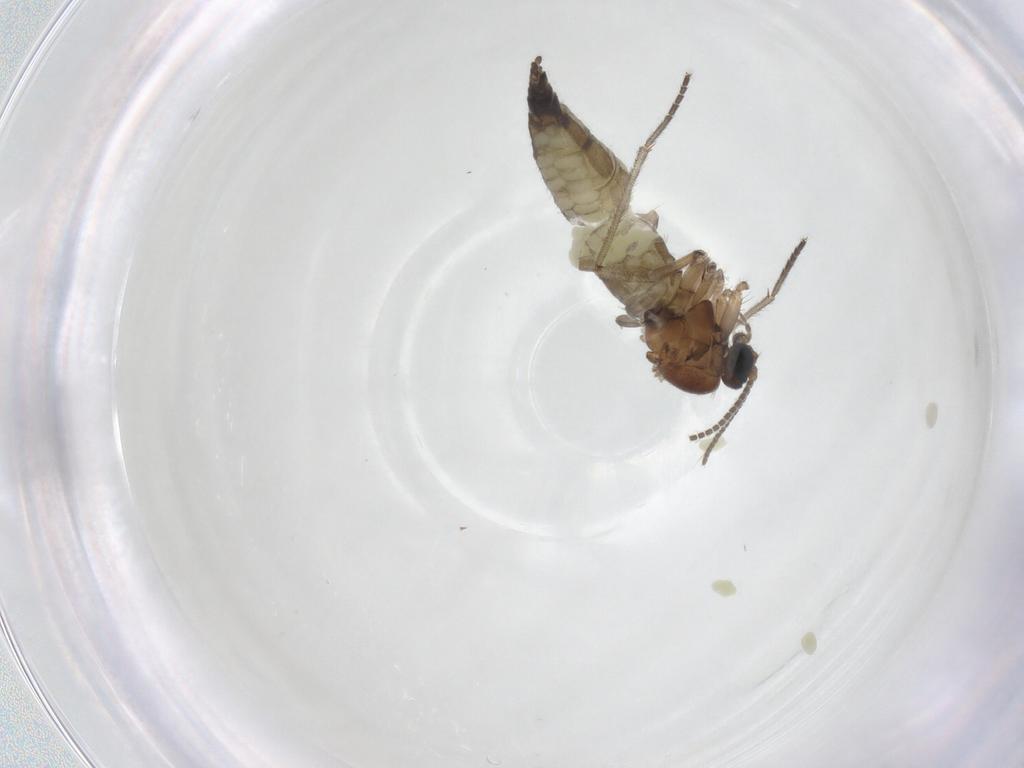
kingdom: Animalia
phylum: Arthropoda
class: Insecta
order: Diptera
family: Sciaridae
